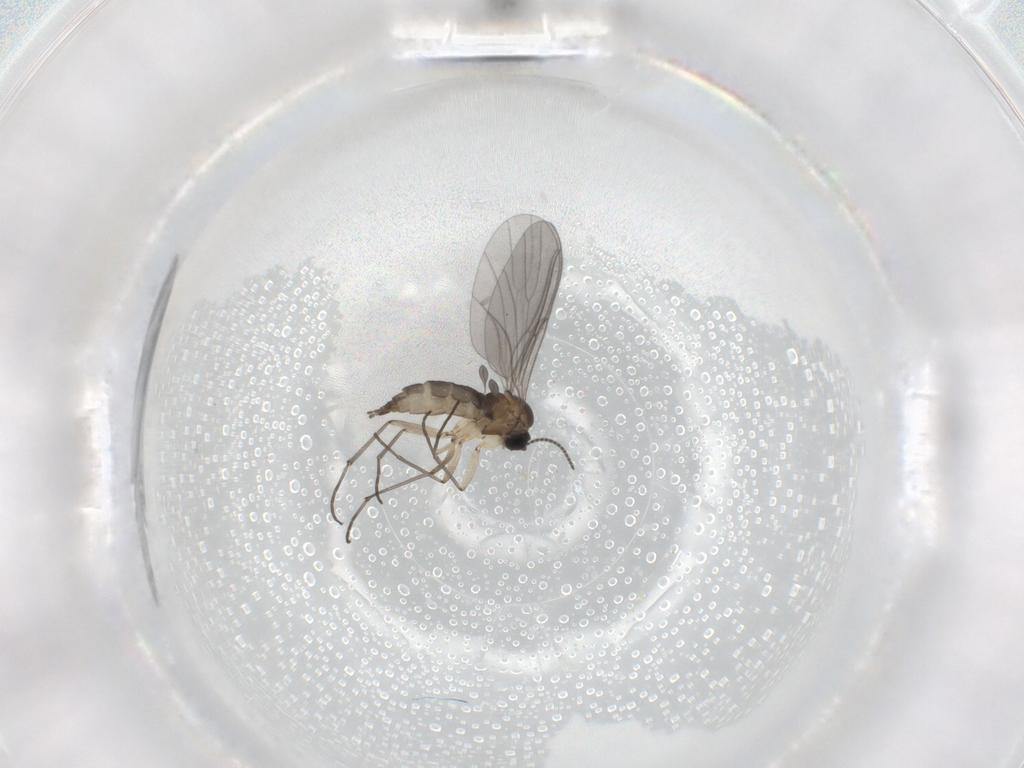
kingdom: Animalia
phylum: Arthropoda
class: Insecta
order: Diptera
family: Sciaridae
